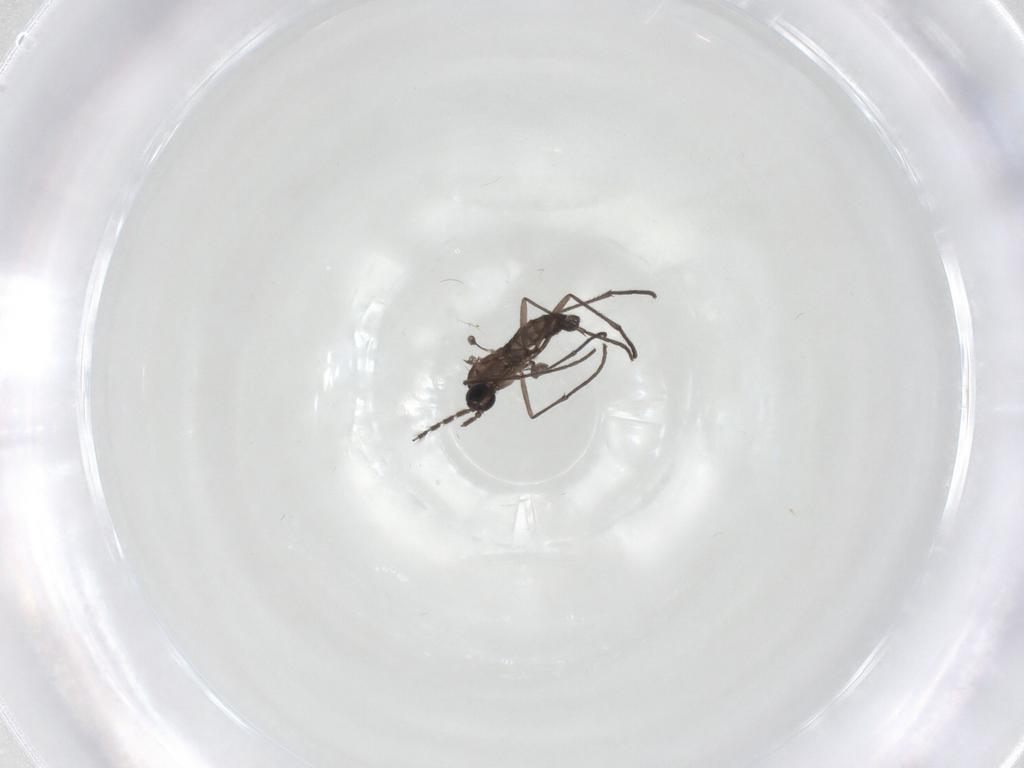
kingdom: Animalia
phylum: Arthropoda
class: Insecta
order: Diptera
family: Sciaridae
